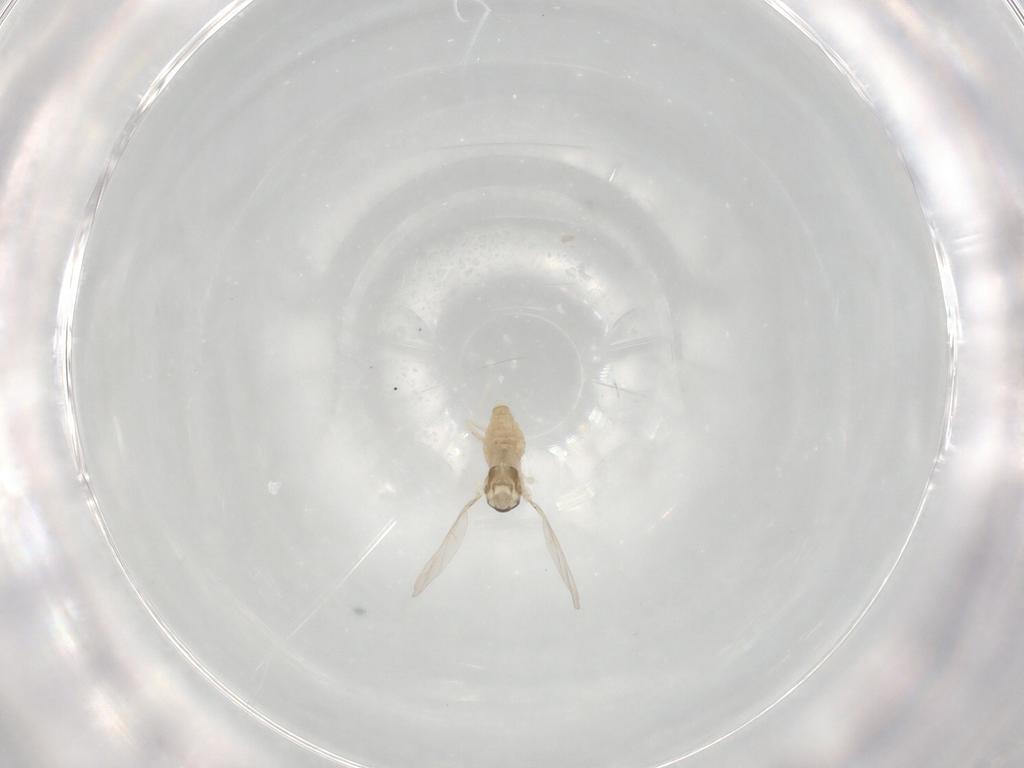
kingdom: Animalia
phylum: Arthropoda
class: Insecta
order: Diptera
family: Cecidomyiidae
